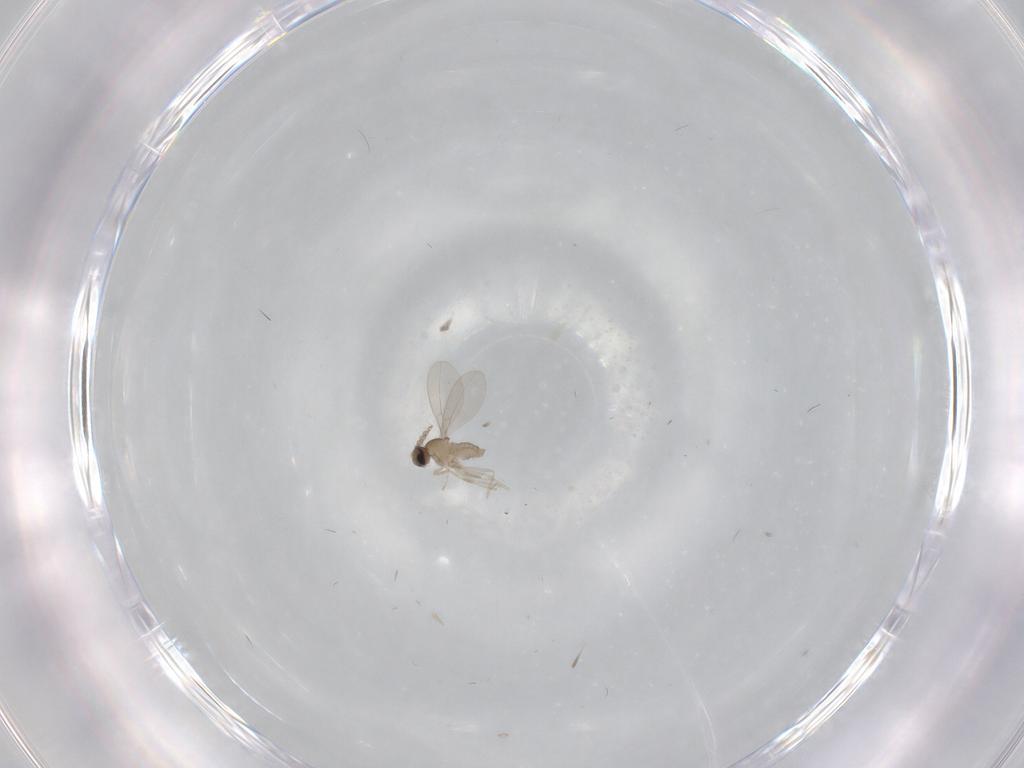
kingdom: Animalia
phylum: Arthropoda
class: Insecta
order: Diptera
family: Cecidomyiidae
